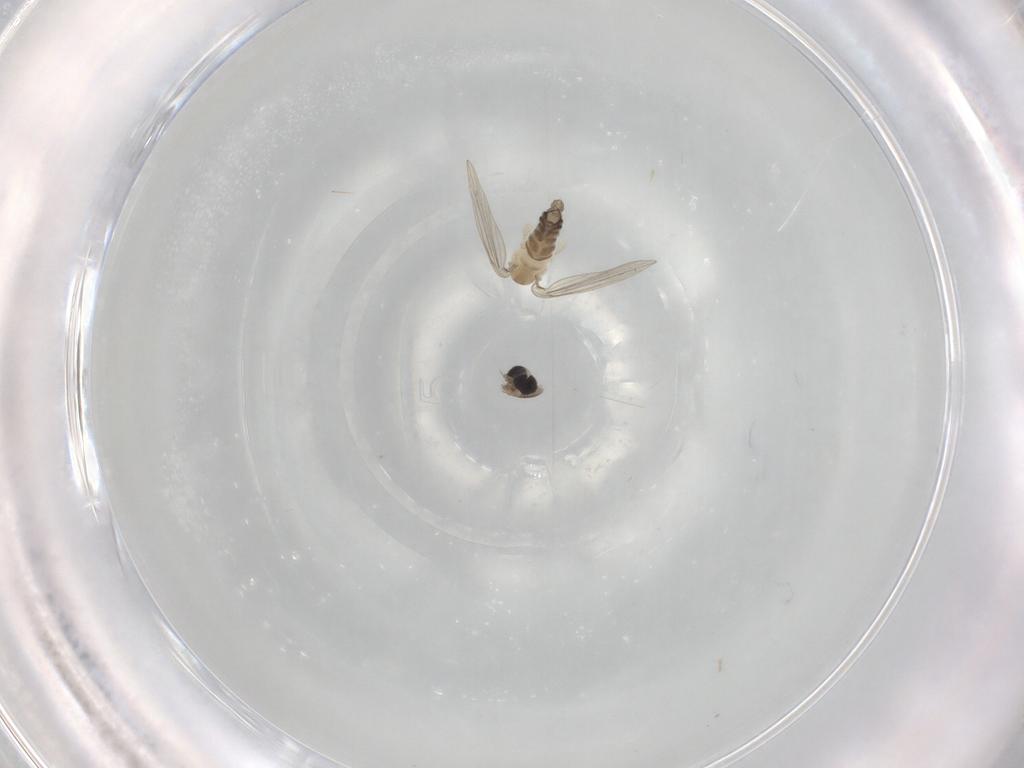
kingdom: Animalia
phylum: Arthropoda
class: Insecta
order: Diptera
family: Psychodidae
